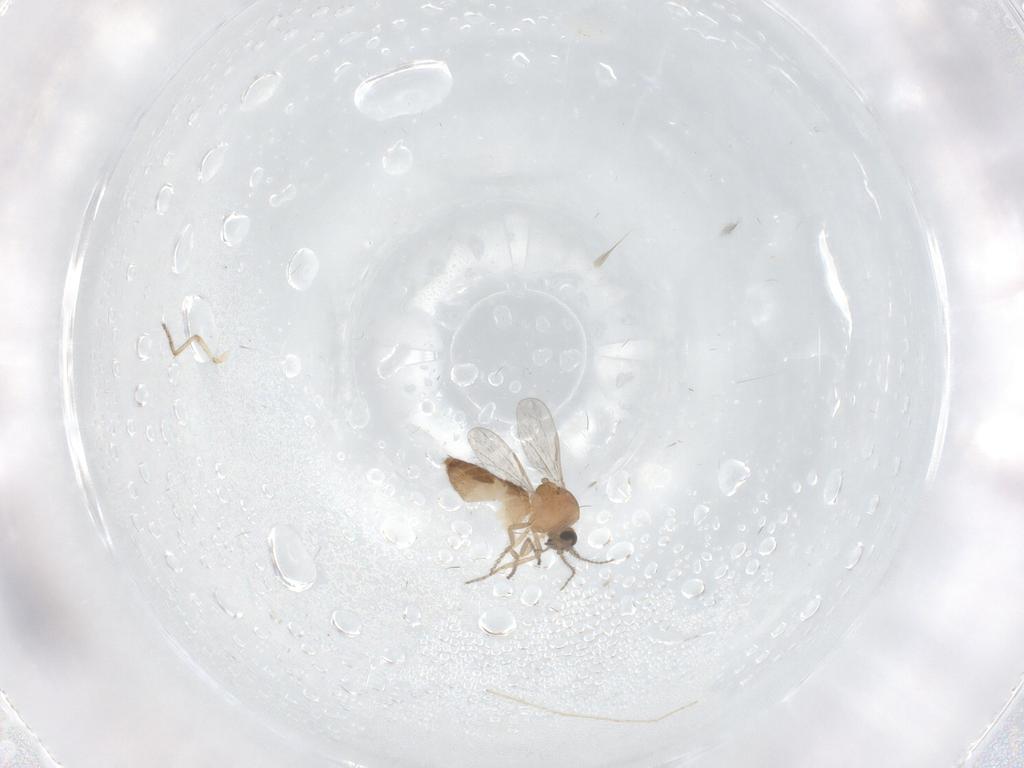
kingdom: Animalia
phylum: Arthropoda
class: Insecta
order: Diptera
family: Ceratopogonidae
